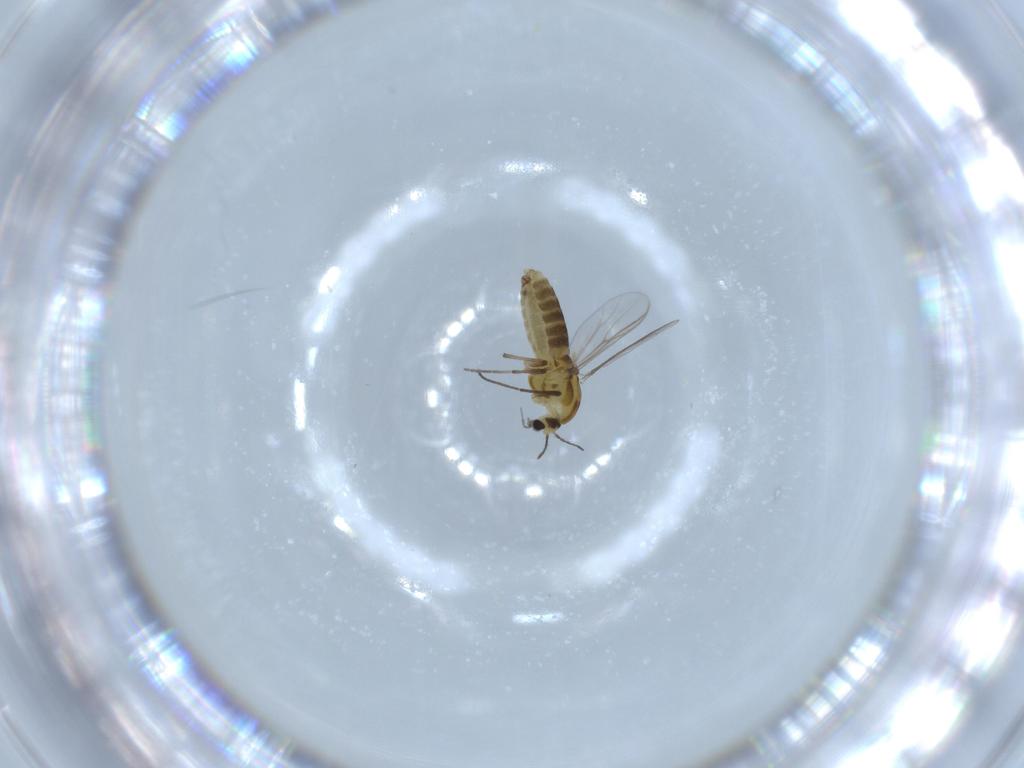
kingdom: Animalia
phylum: Arthropoda
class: Insecta
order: Diptera
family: Chironomidae
